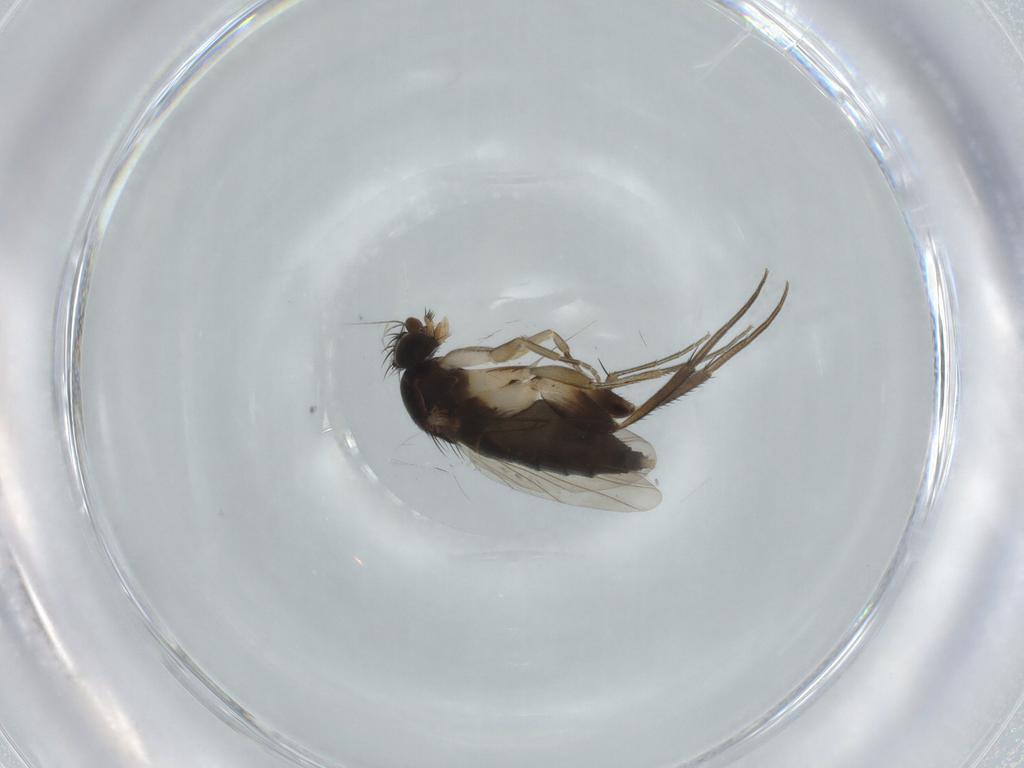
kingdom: Animalia
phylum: Arthropoda
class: Insecta
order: Diptera
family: Phoridae
